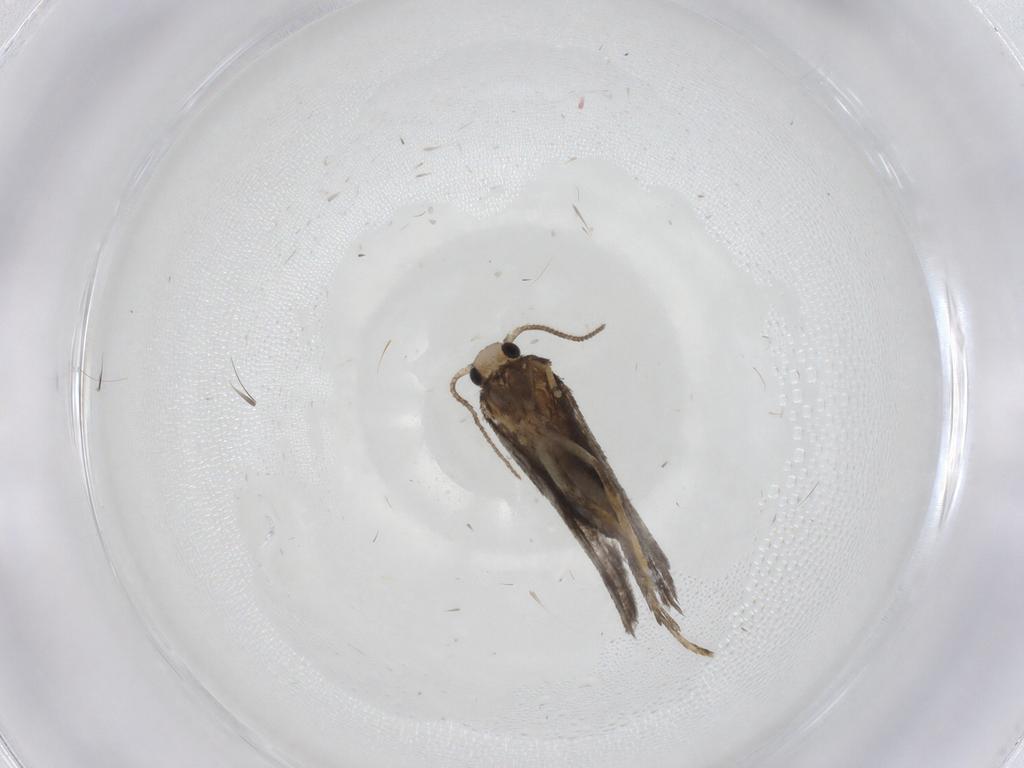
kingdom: Animalia
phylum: Arthropoda
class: Insecta
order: Lepidoptera
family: Psychidae
